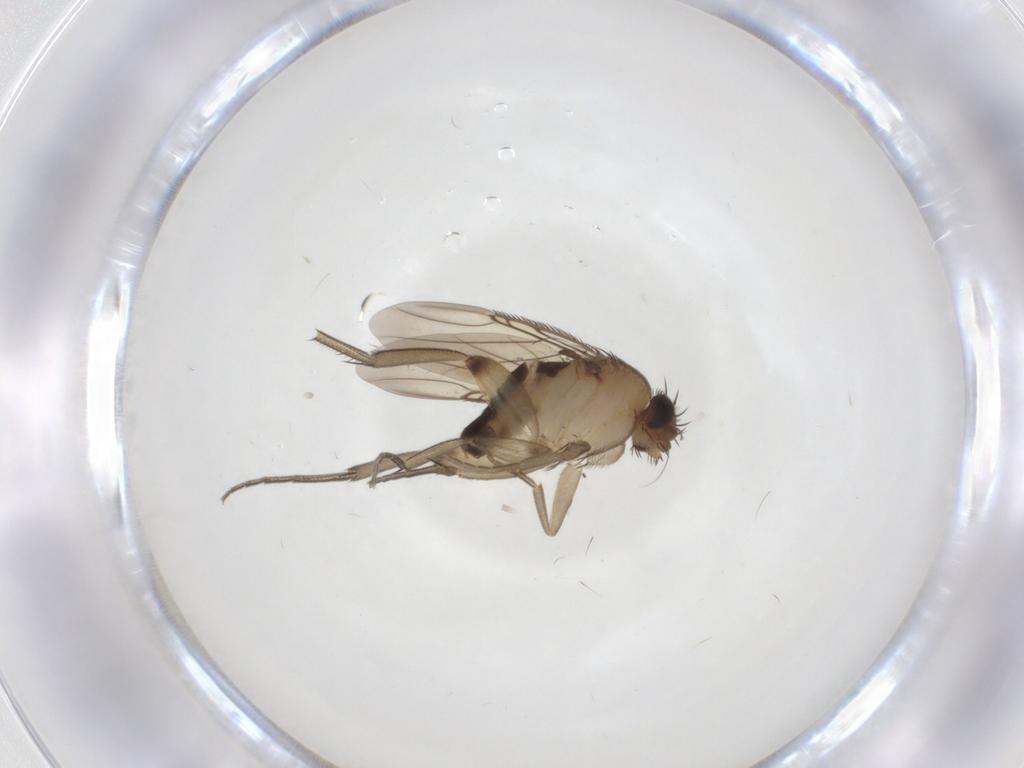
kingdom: Animalia
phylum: Arthropoda
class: Insecta
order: Diptera
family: Phoridae
